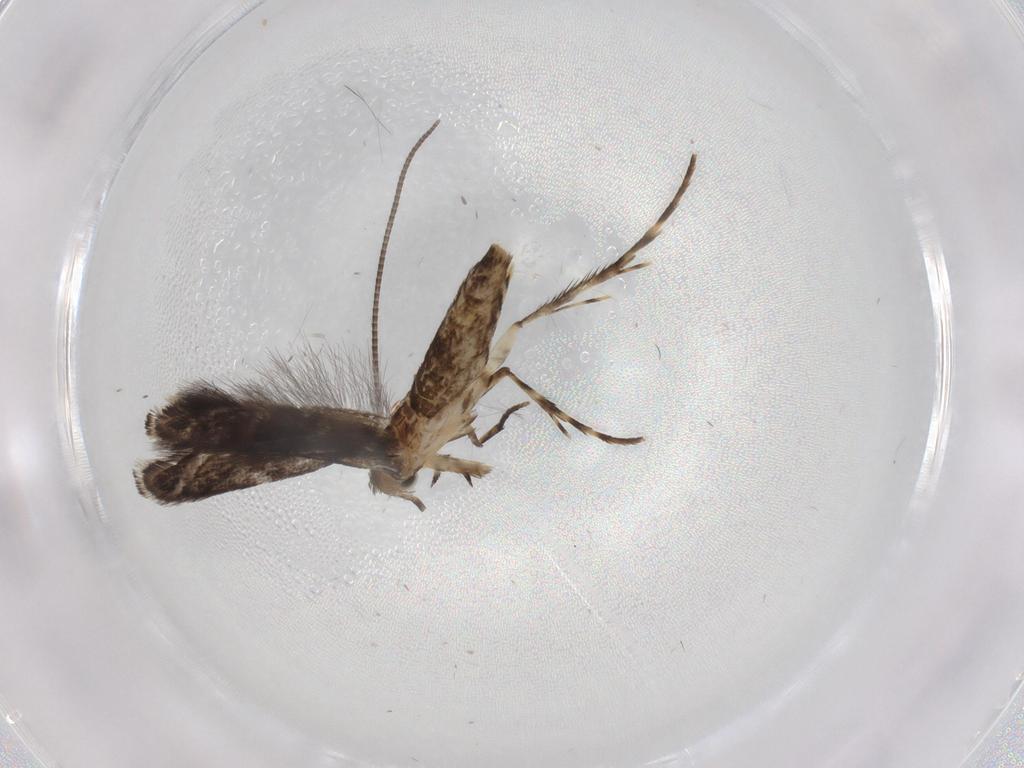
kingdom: Animalia
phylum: Arthropoda
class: Insecta
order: Lepidoptera
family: Gracillariidae
